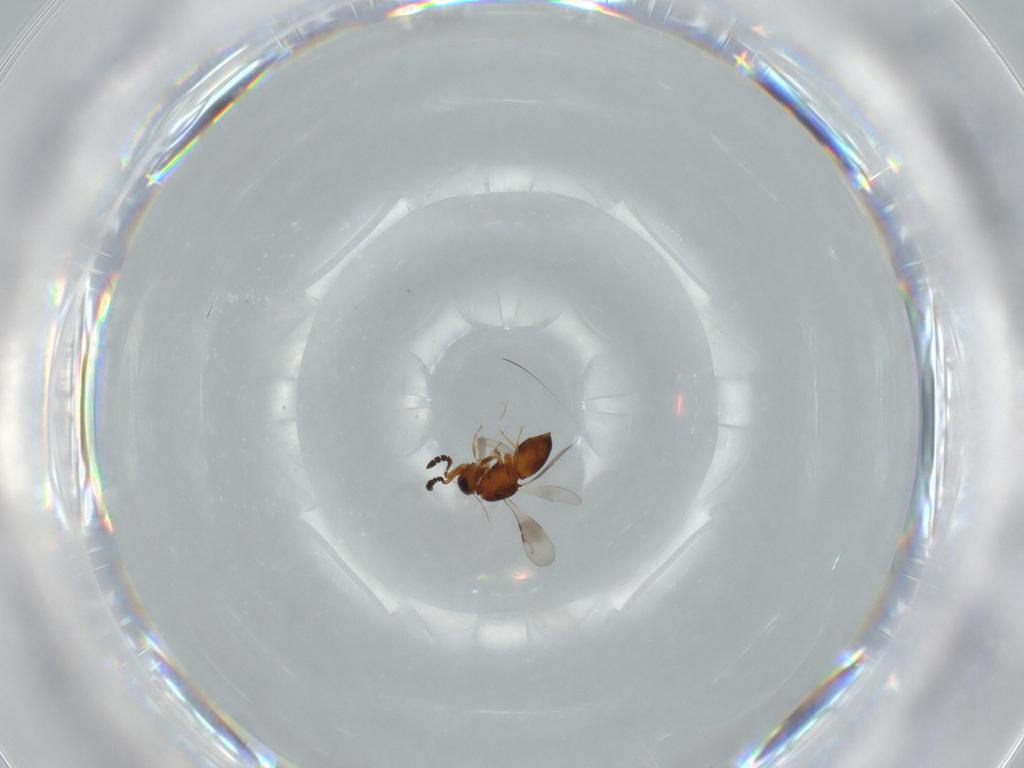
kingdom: Animalia
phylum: Arthropoda
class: Insecta
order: Hymenoptera
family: Ceraphronidae
